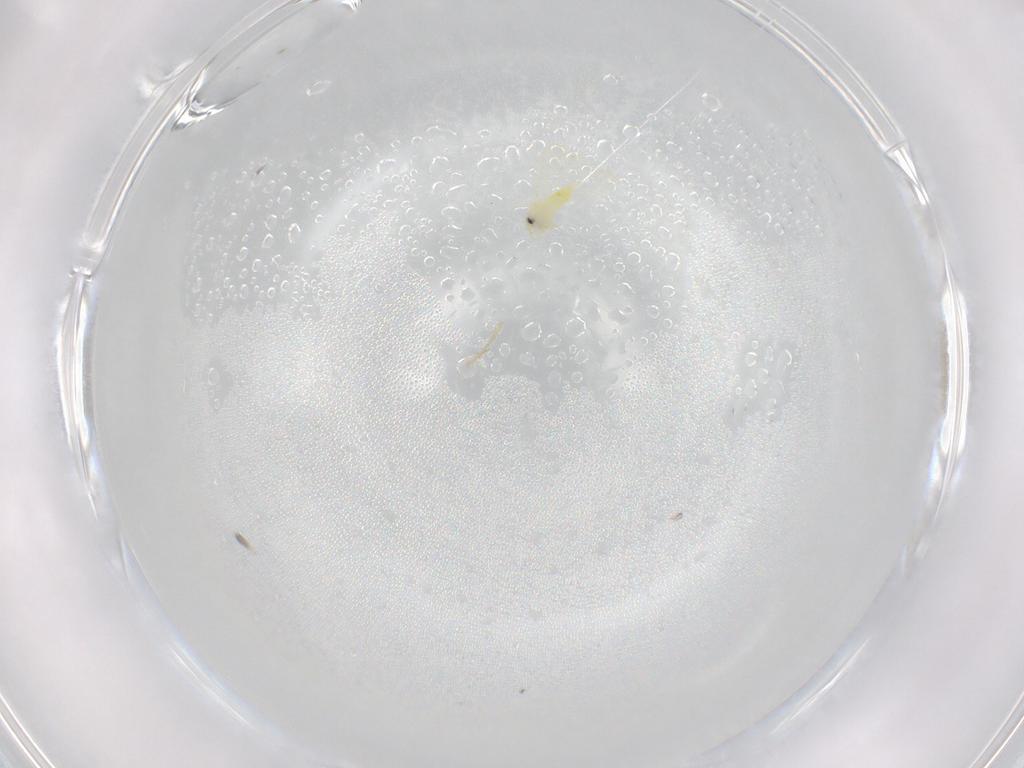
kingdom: Animalia
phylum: Arthropoda
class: Insecta
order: Hemiptera
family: Aleyrodidae
